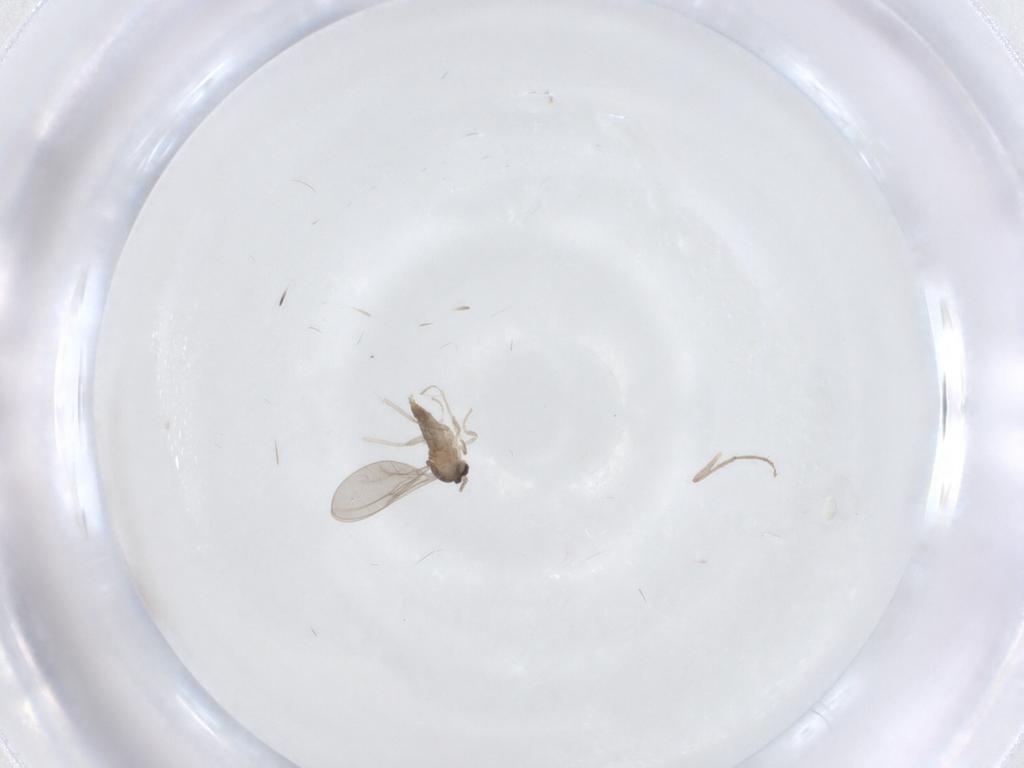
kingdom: Animalia
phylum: Arthropoda
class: Insecta
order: Diptera
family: Cecidomyiidae
